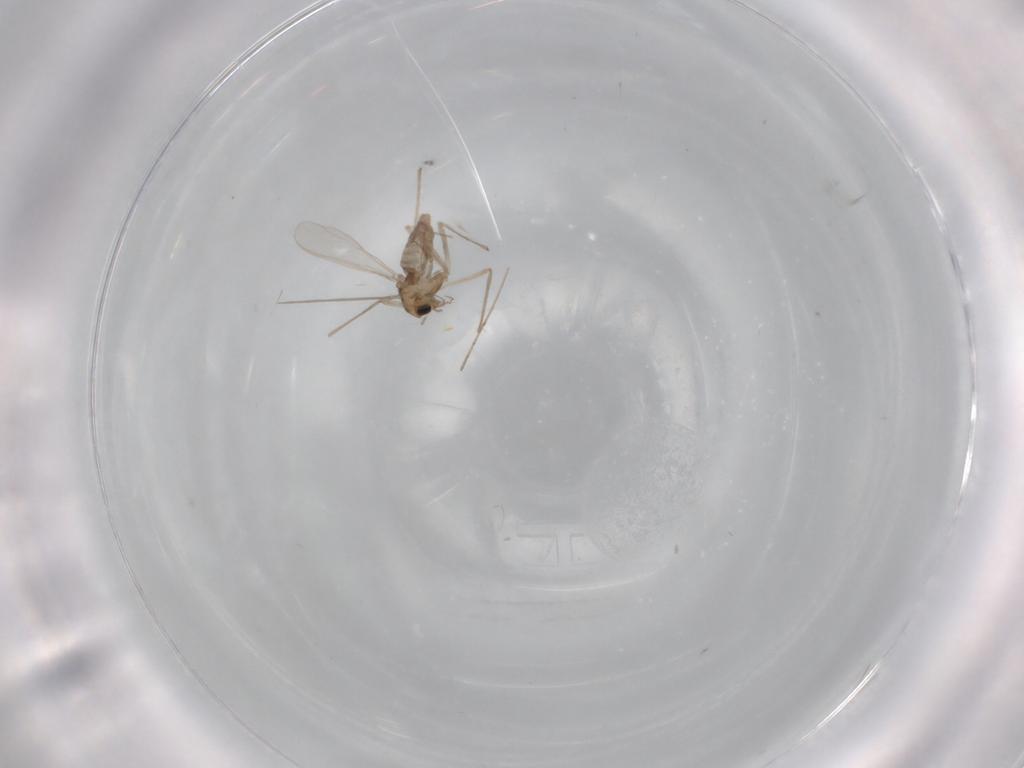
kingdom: Animalia
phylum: Arthropoda
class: Insecta
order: Diptera
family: Chironomidae
